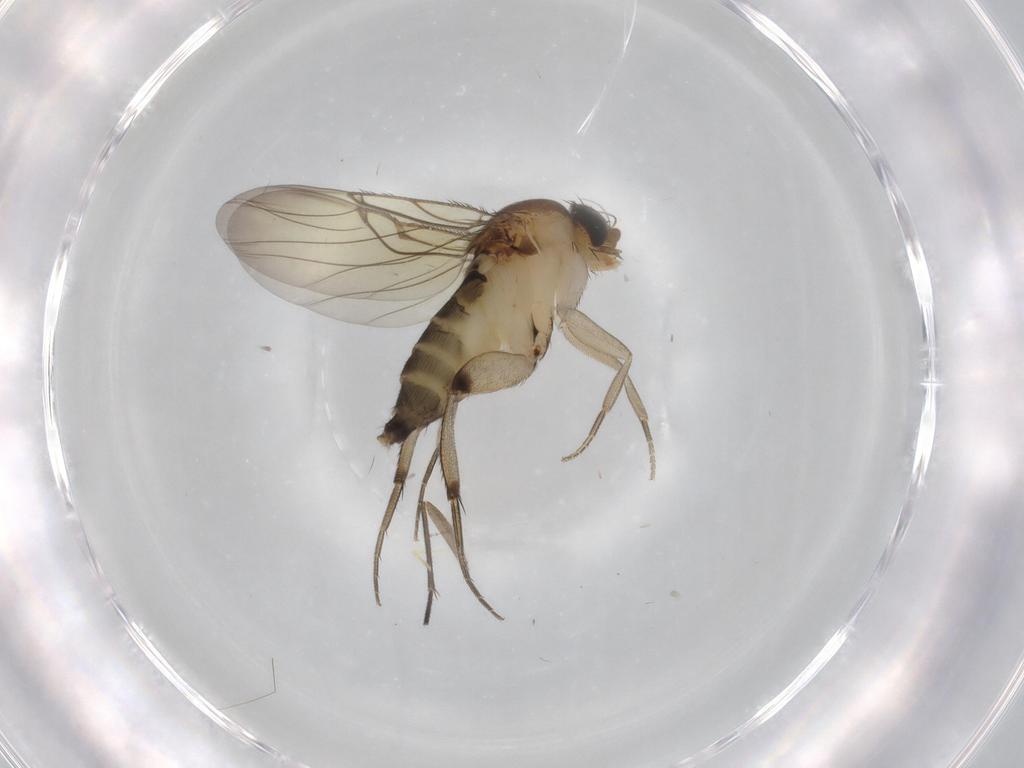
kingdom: Animalia
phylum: Arthropoda
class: Insecta
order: Diptera
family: Phoridae
